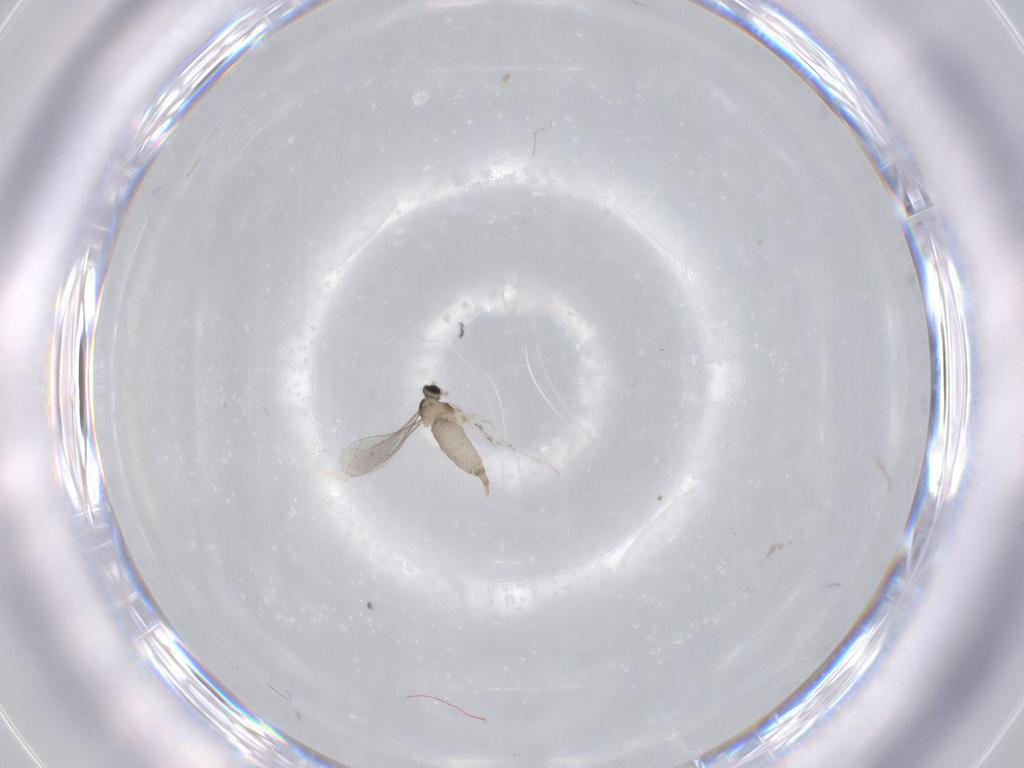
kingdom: Animalia
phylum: Arthropoda
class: Insecta
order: Diptera
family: Cecidomyiidae
